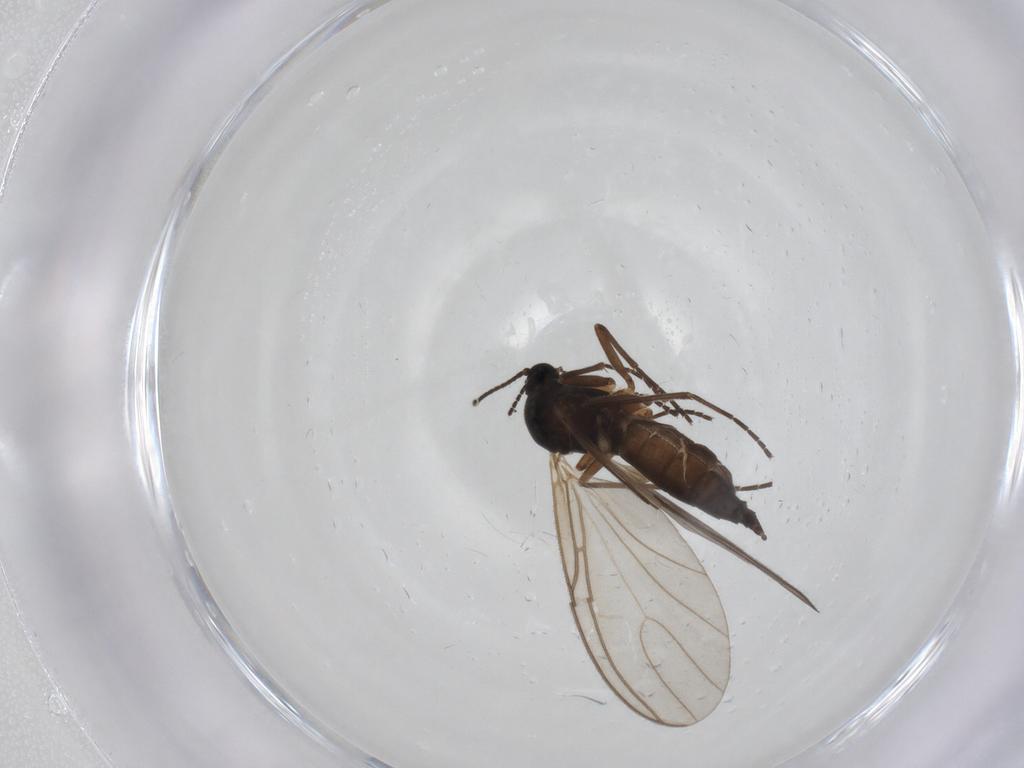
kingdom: Animalia
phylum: Arthropoda
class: Insecta
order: Diptera
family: Sciaridae
